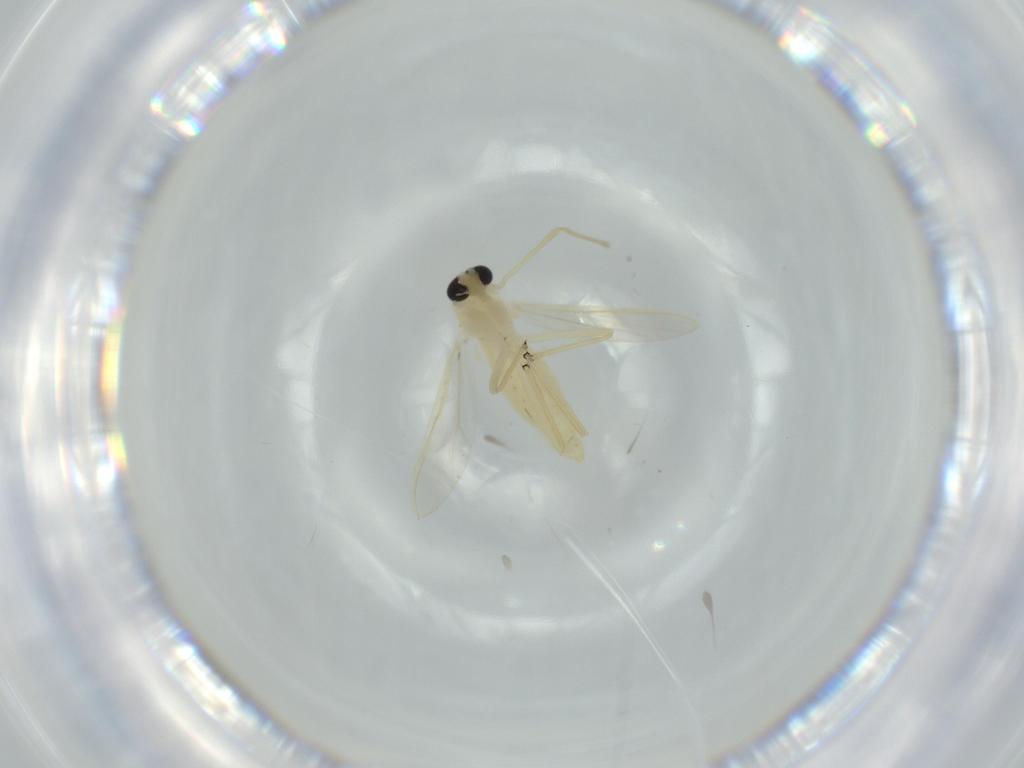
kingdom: Animalia
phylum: Arthropoda
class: Insecta
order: Diptera
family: Chironomidae
